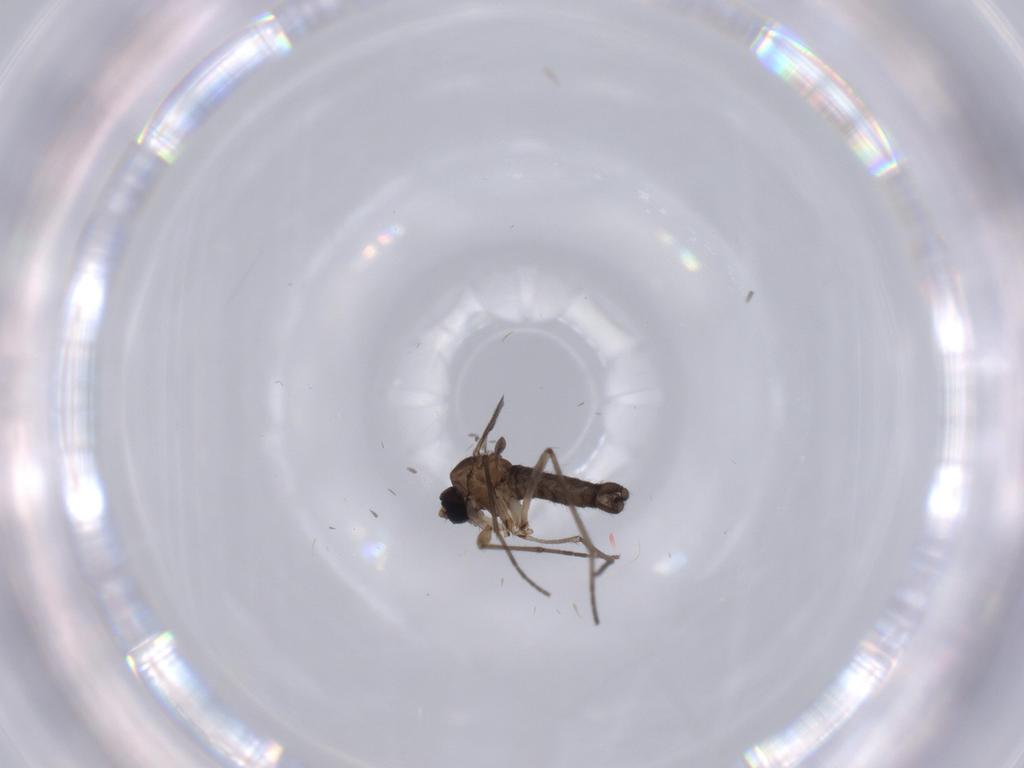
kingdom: Animalia
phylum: Arthropoda
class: Insecta
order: Diptera
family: Sciaridae
